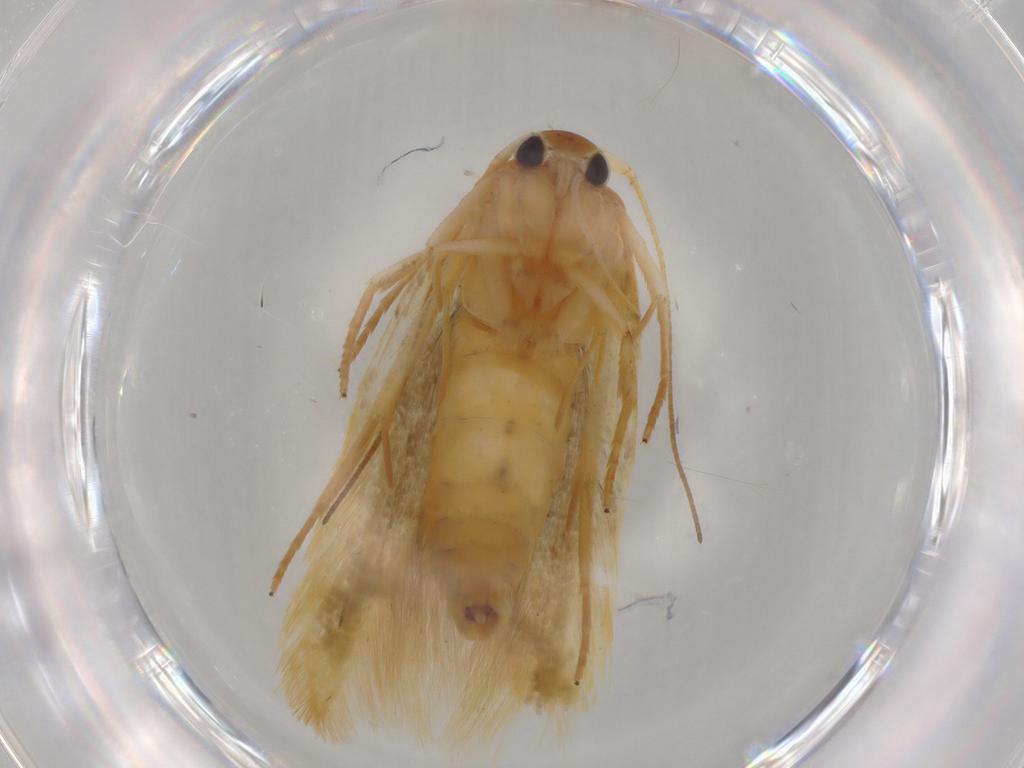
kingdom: Animalia
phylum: Arthropoda
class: Insecta
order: Lepidoptera
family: Oecophoridae
